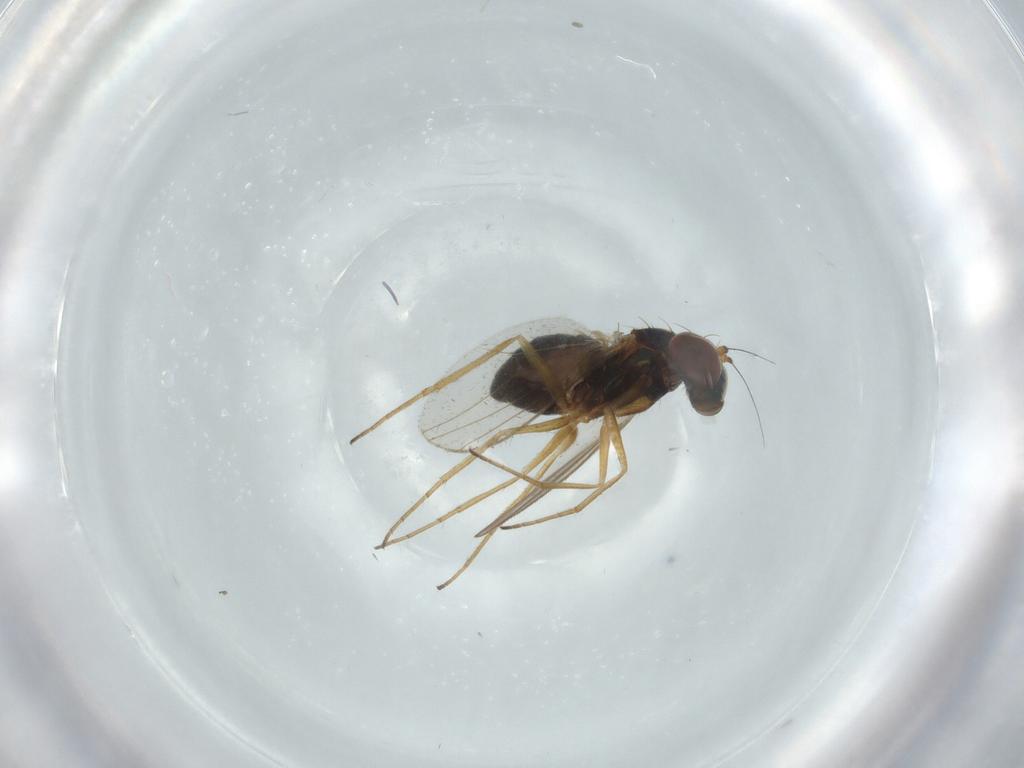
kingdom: Animalia
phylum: Arthropoda
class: Insecta
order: Diptera
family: Dolichopodidae
